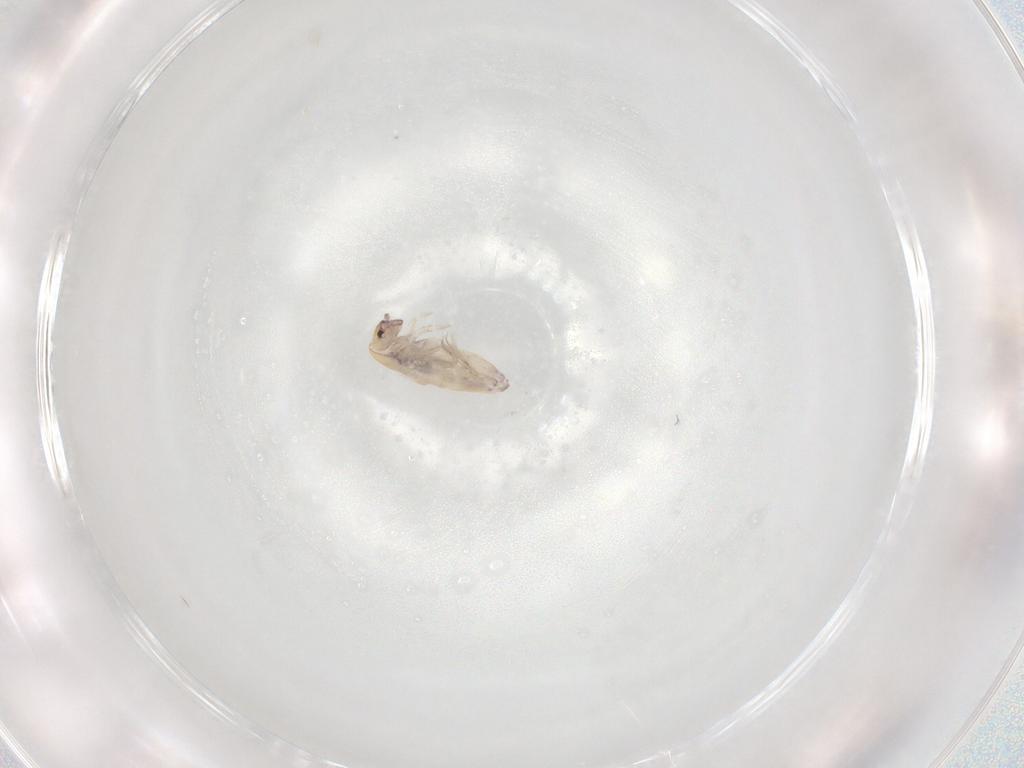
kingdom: Animalia
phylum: Arthropoda
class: Collembola
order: Entomobryomorpha
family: Entomobryidae
